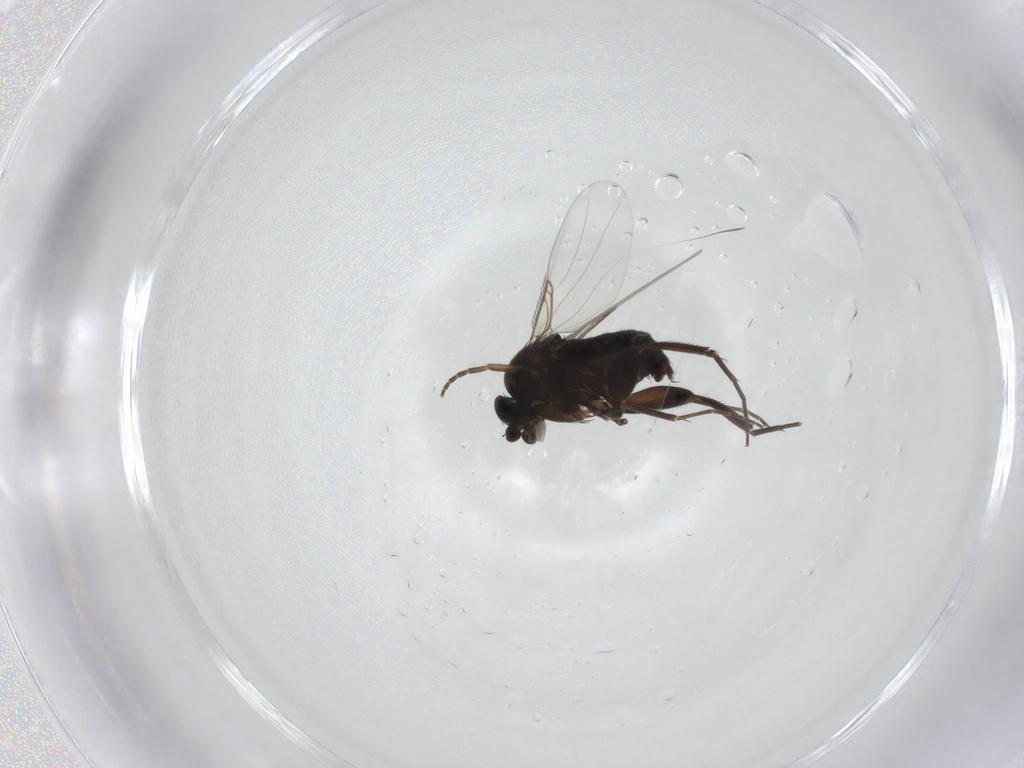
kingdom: Animalia
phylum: Arthropoda
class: Insecta
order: Diptera
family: Phoridae
